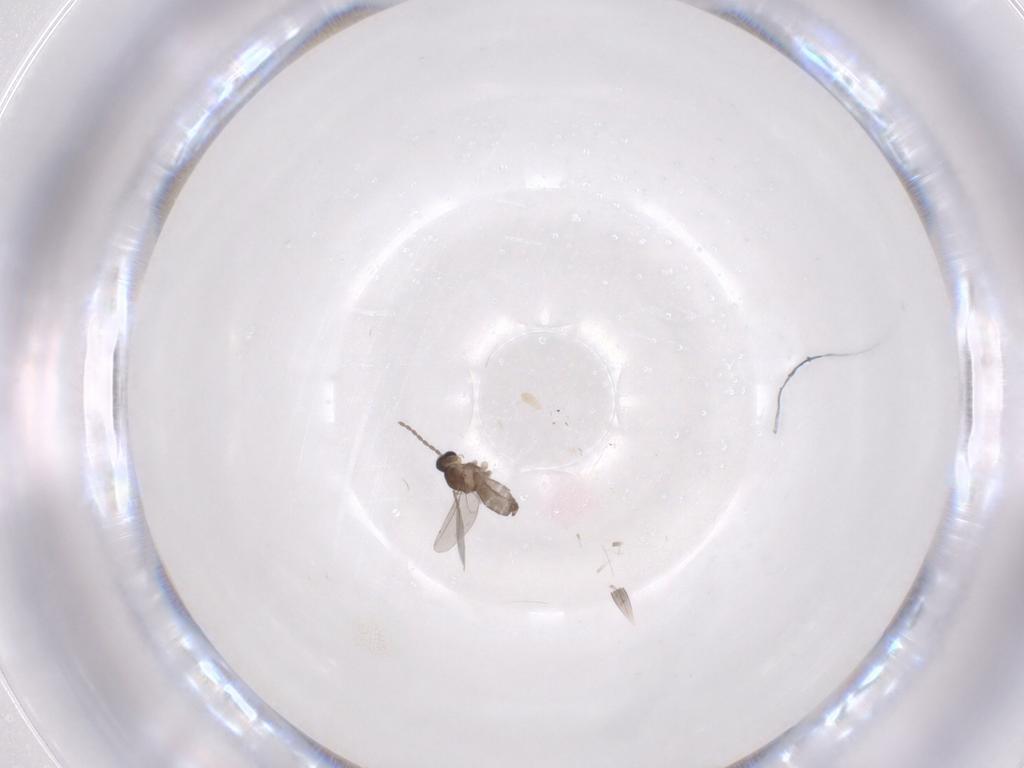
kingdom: Animalia
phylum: Arthropoda
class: Insecta
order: Diptera
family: Cecidomyiidae
